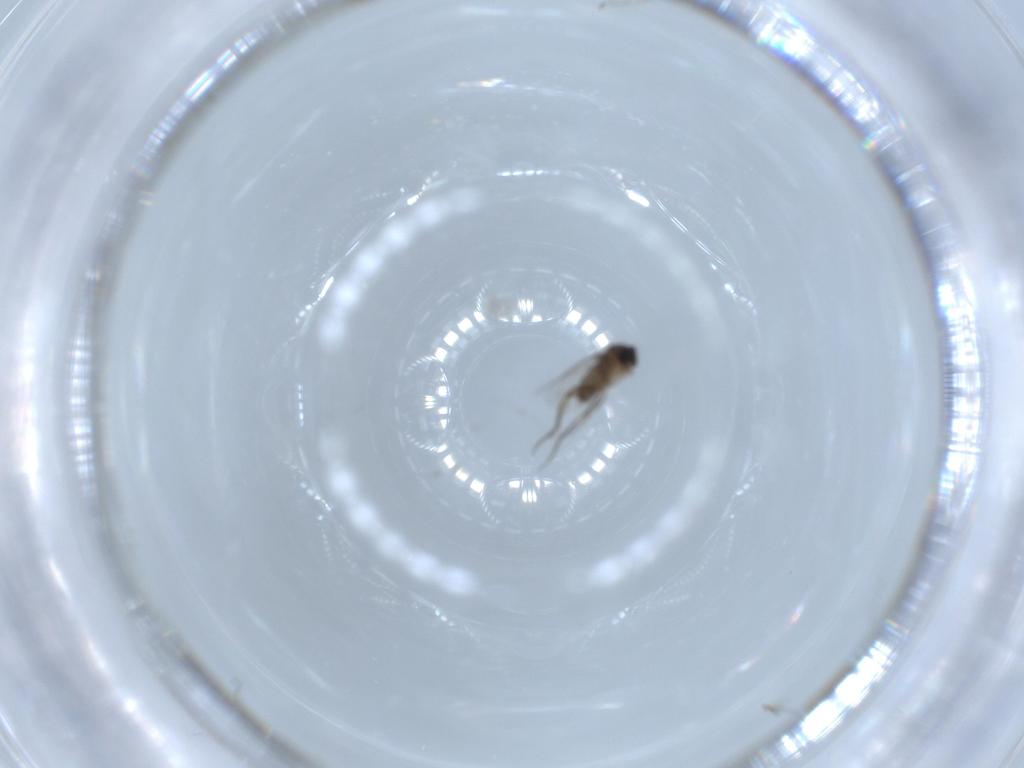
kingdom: Animalia
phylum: Arthropoda
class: Insecta
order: Diptera
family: Phoridae
